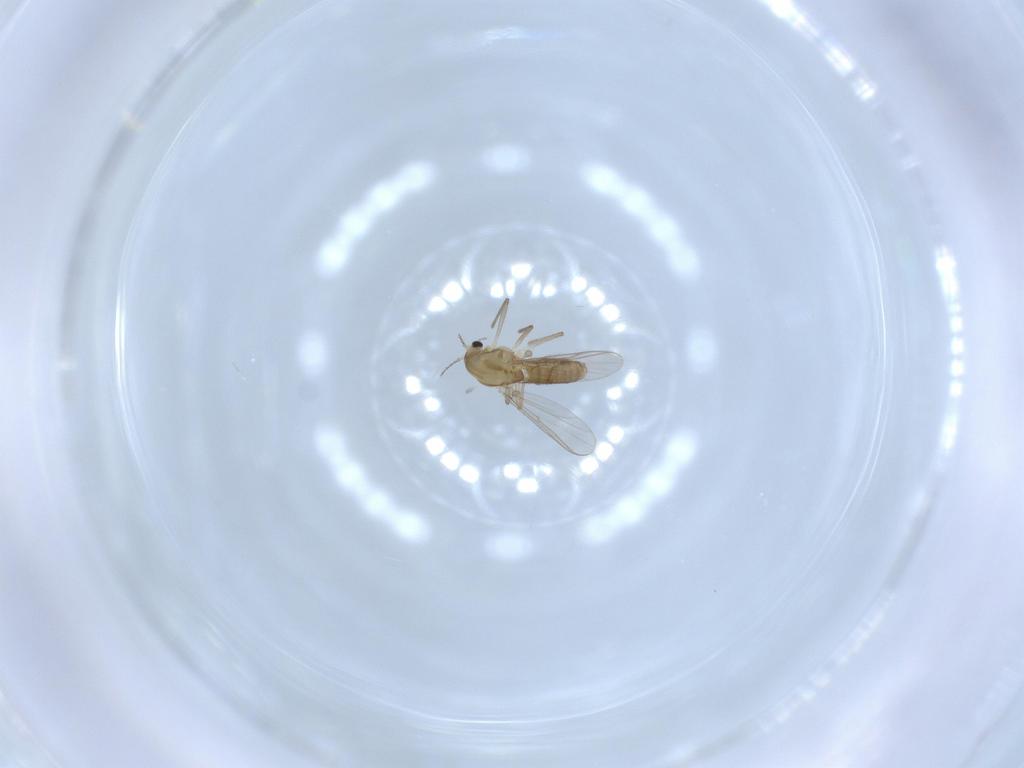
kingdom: Animalia
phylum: Arthropoda
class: Insecta
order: Diptera
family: Chironomidae
